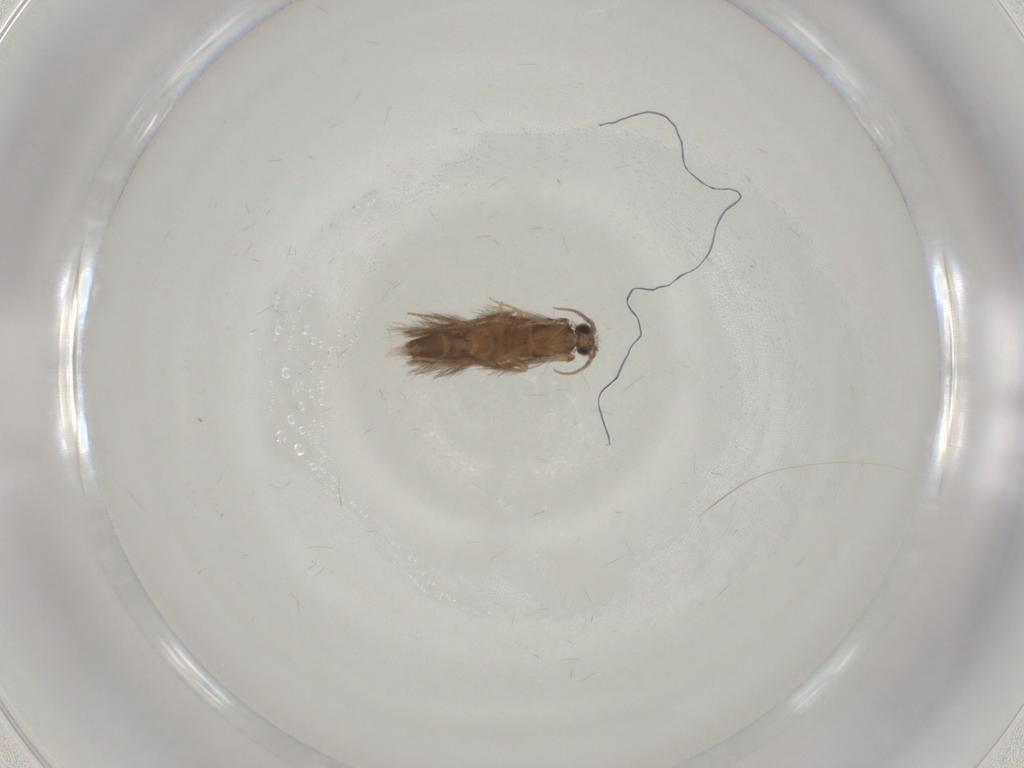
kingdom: Animalia
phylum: Arthropoda
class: Insecta
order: Trichoptera
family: Hydroptilidae
